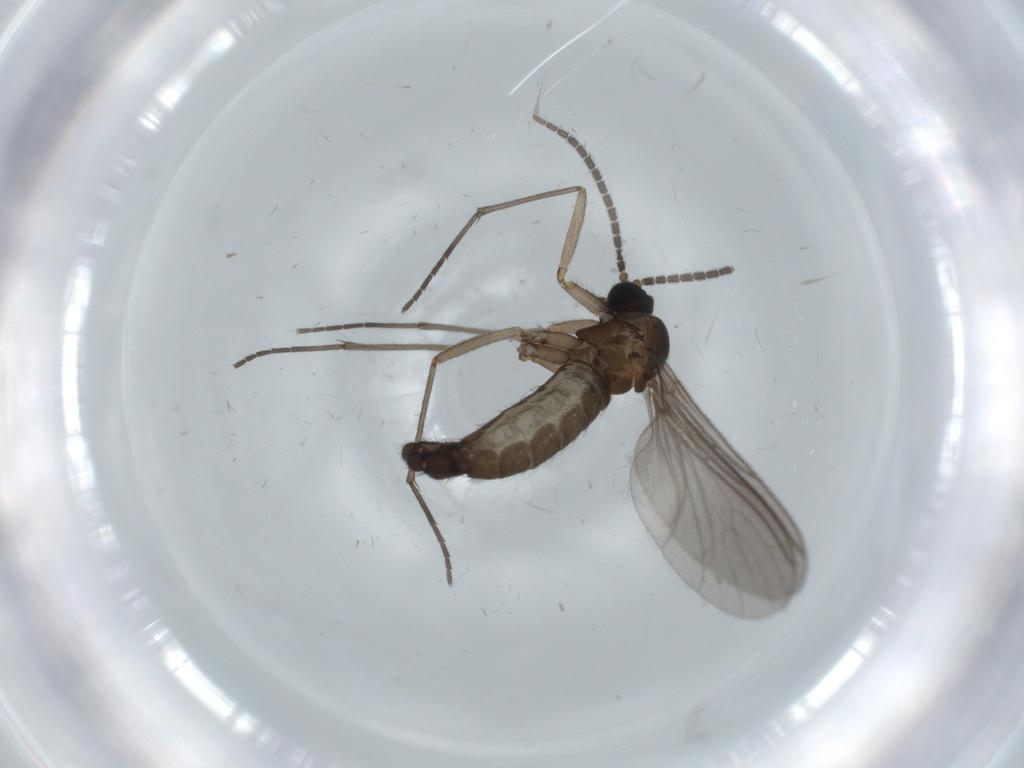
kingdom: Animalia
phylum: Arthropoda
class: Insecta
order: Diptera
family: Sciaridae
